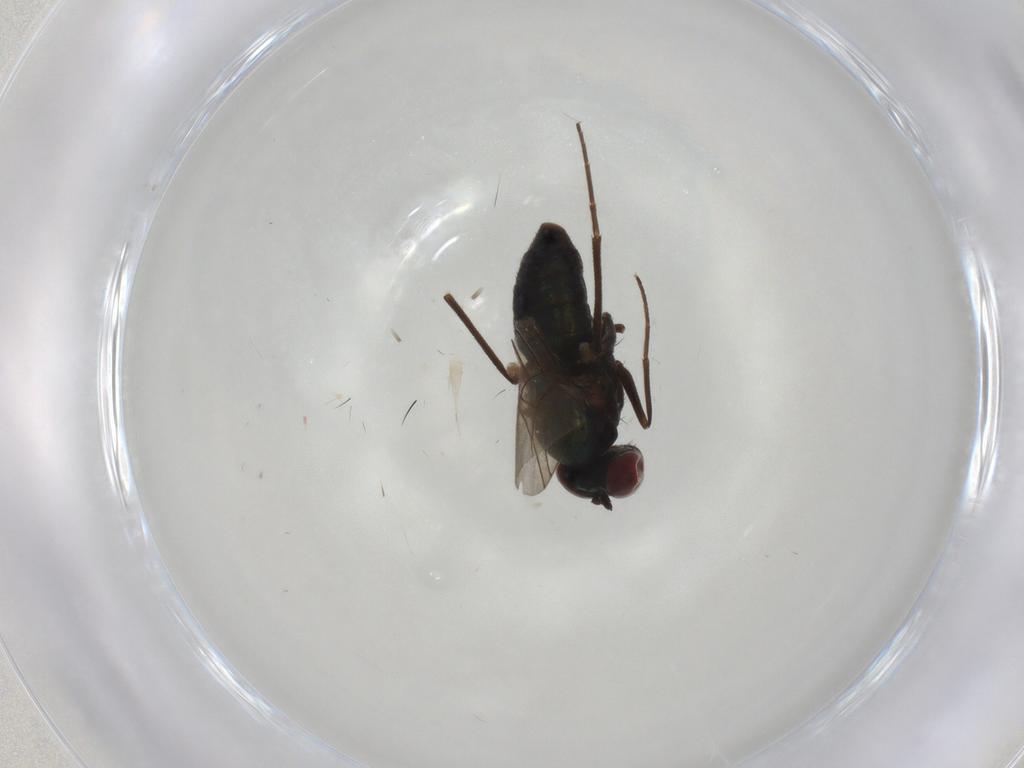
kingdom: Animalia
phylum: Arthropoda
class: Insecta
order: Diptera
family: Dolichopodidae
